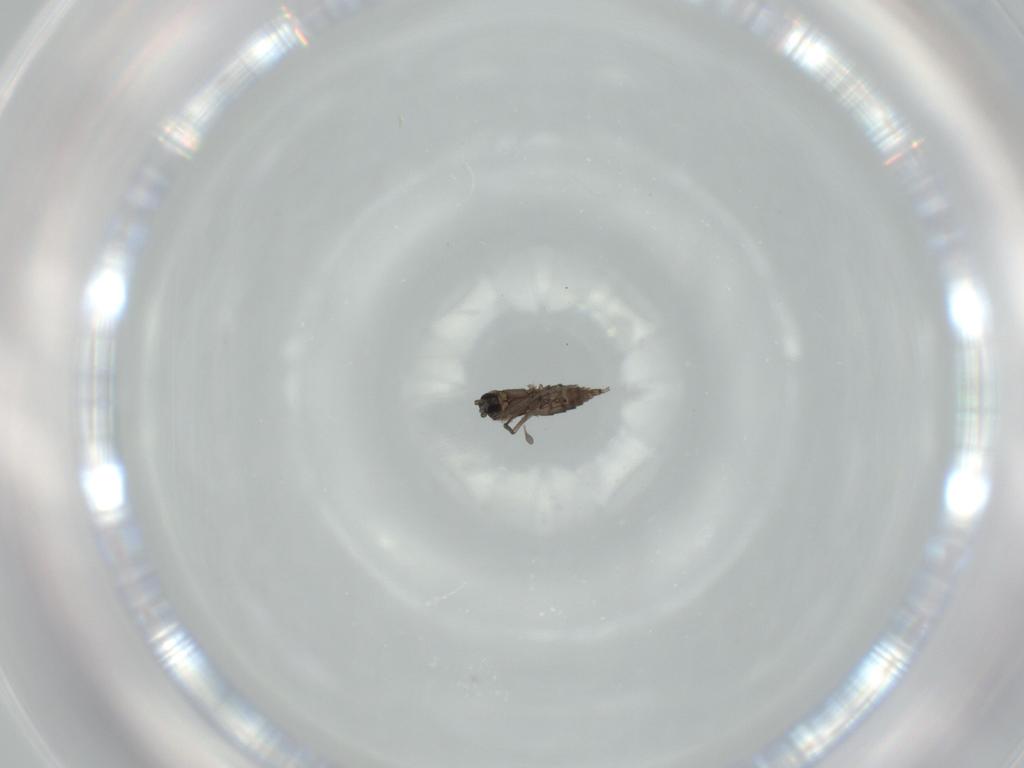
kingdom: Animalia
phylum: Arthropoda
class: Insecta
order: Diptera
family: Sciaridae
